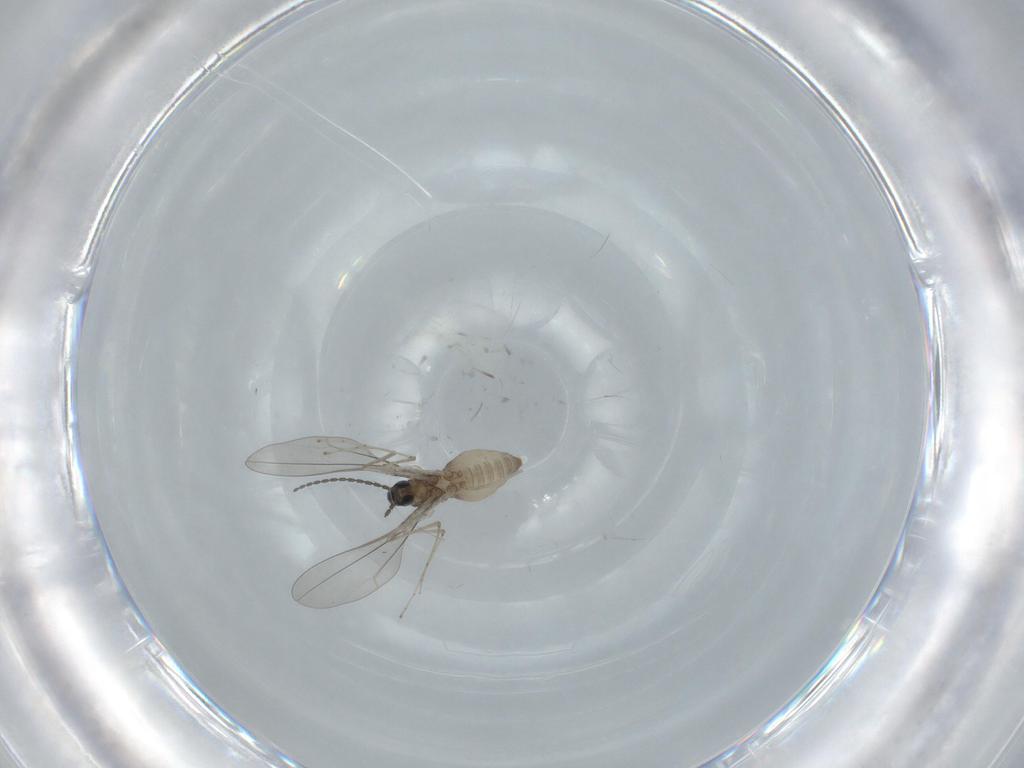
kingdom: Animalia
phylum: Arthropoda
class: Insecta
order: Diptera
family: Sciaridae
